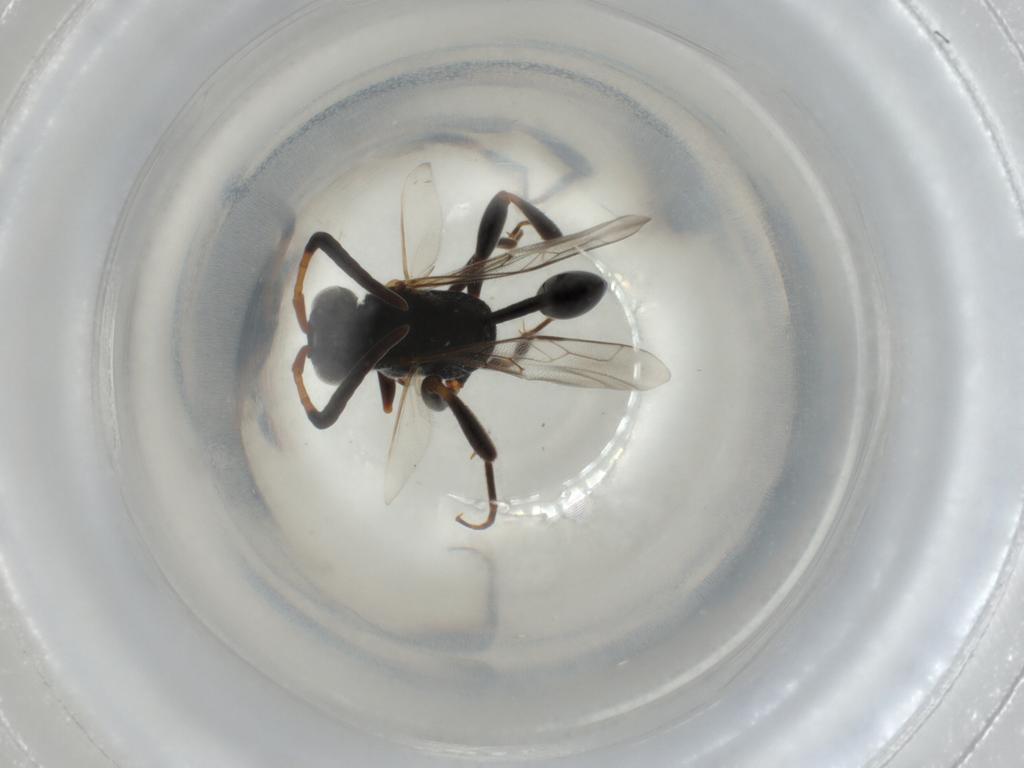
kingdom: Animalia
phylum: Arthropoda
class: Insecta
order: Hymenoptera
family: Evaniidae
